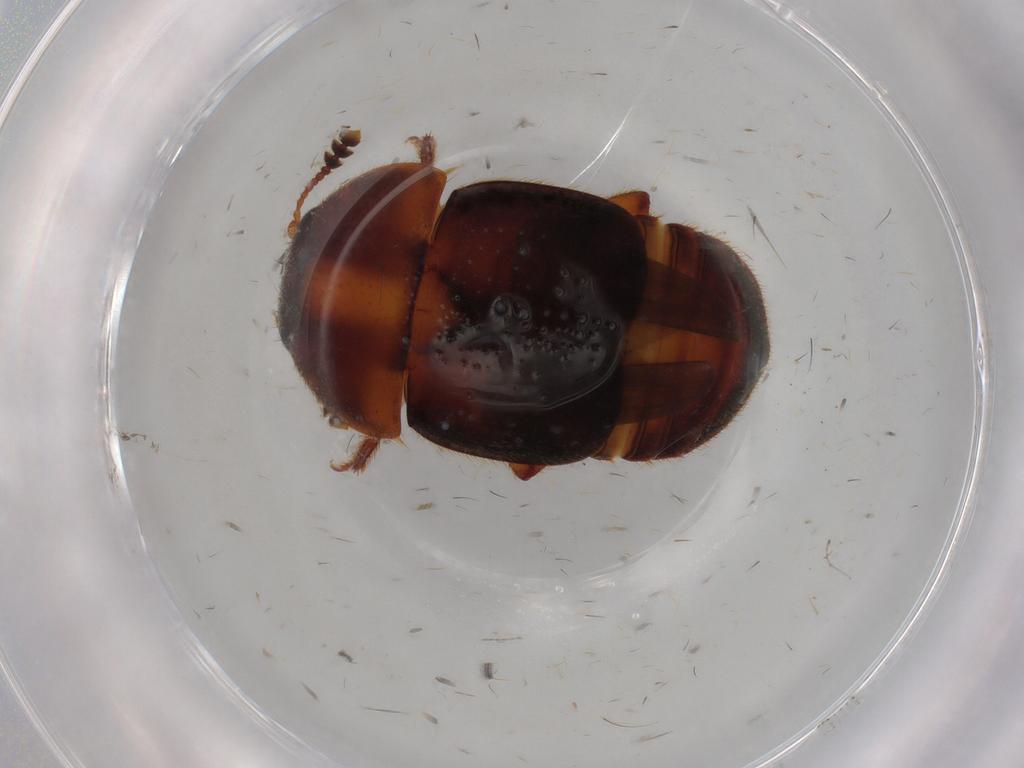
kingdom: Animalia
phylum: Arthropoda
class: Insecta
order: Coleoptera
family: Nitidulidae
